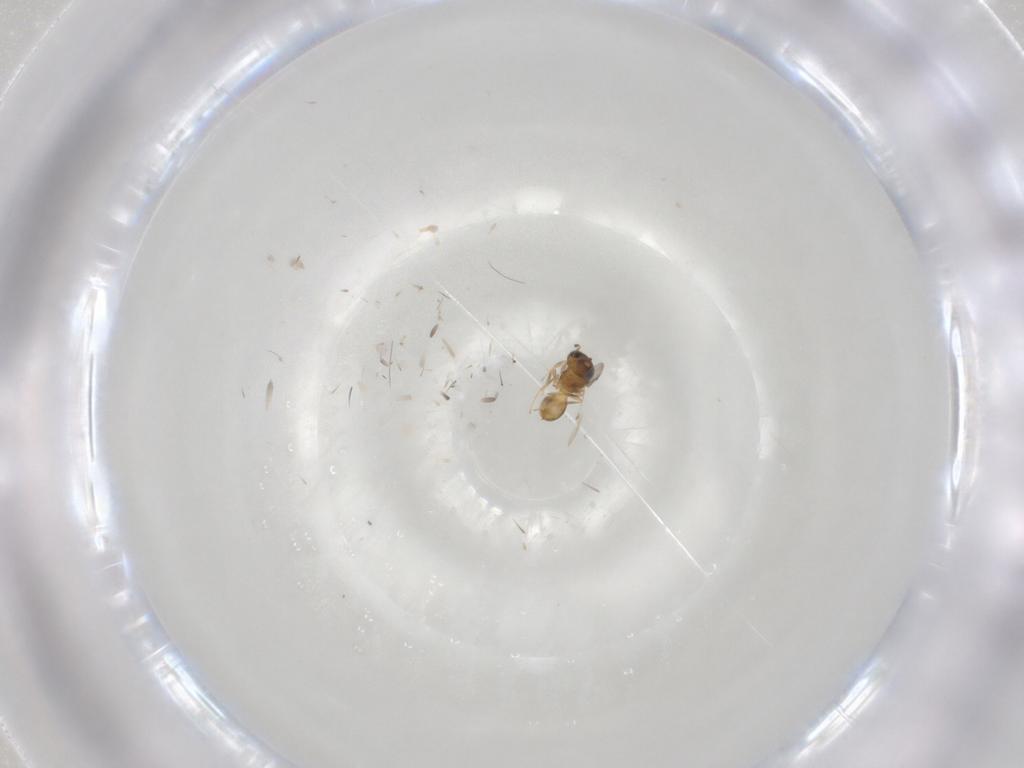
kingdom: Animalia
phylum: Arthropoda
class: Insecta
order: Hymenoptera
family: Scelionidae
